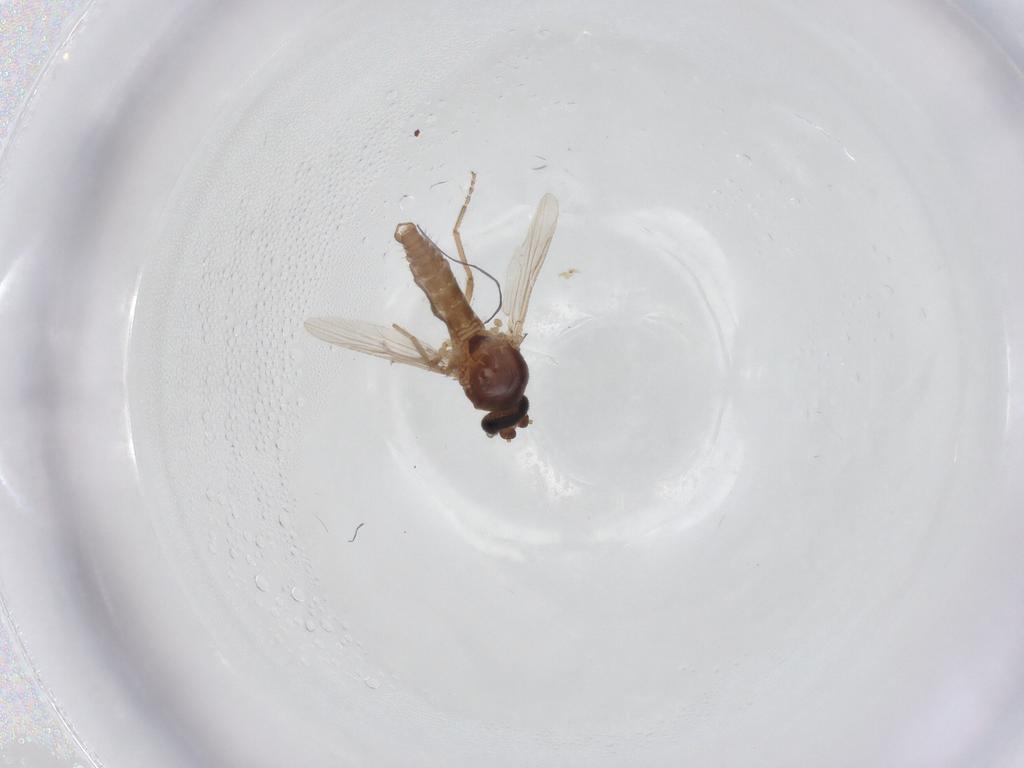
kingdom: Animalia
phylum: Arthropoda
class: Insecta
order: Diptera
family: Ceratopogonidae
